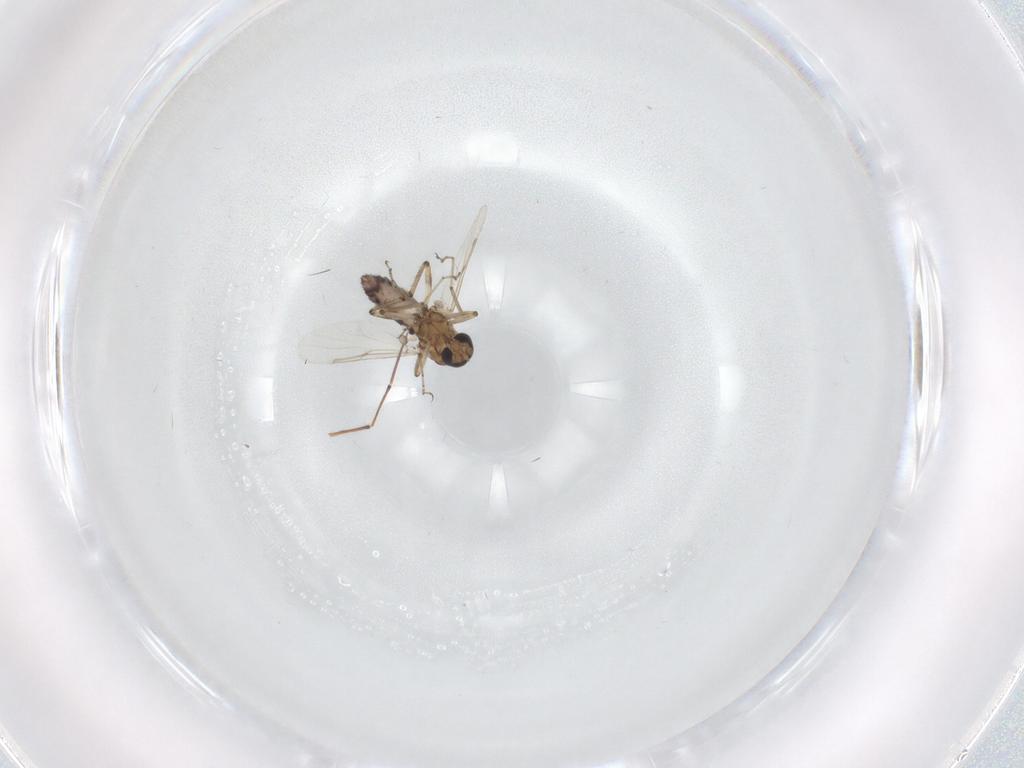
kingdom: Animalia
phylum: Arthropoda
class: Insecta
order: Diptera
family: Ceratopogonidae
